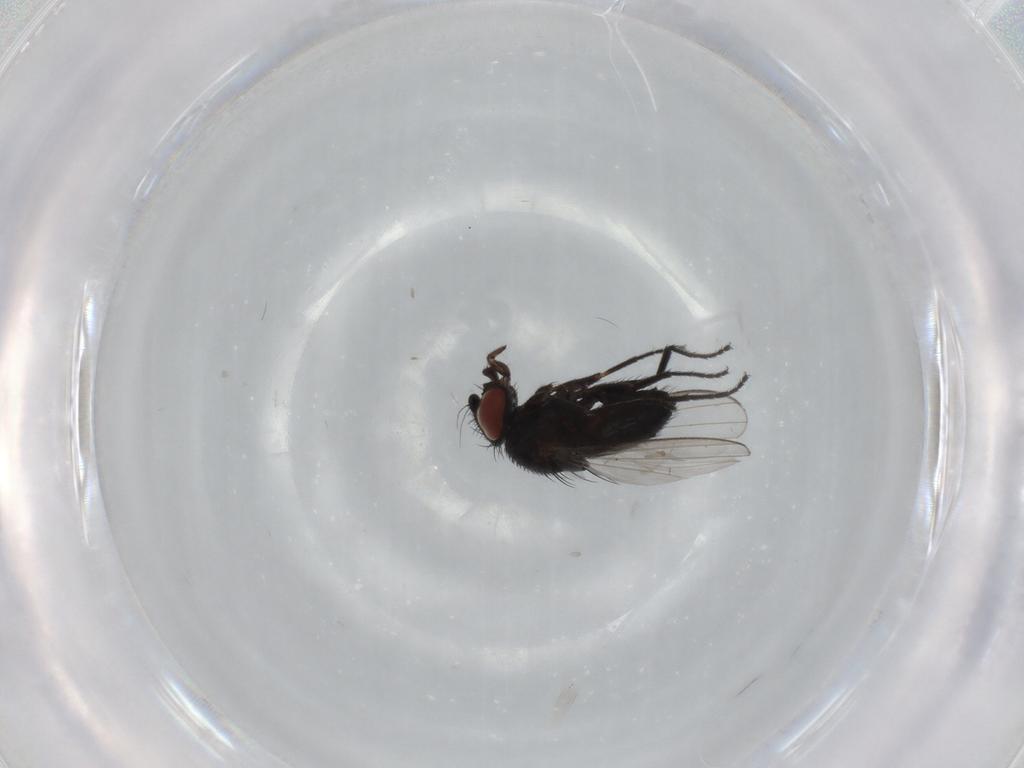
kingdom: Animalia
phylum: Arthropoda
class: Insecta
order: Diptera
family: Milichiidae
